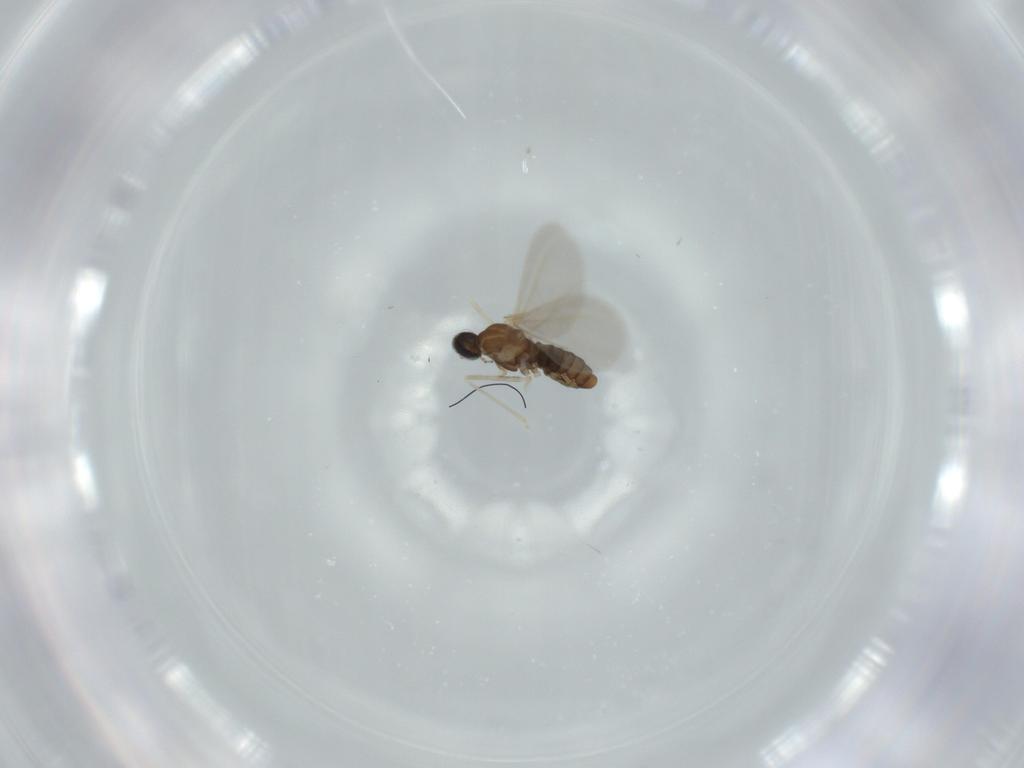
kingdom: Animalia
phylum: Arthropoda
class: Insecta
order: Diptera
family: Cecidomyiidae
